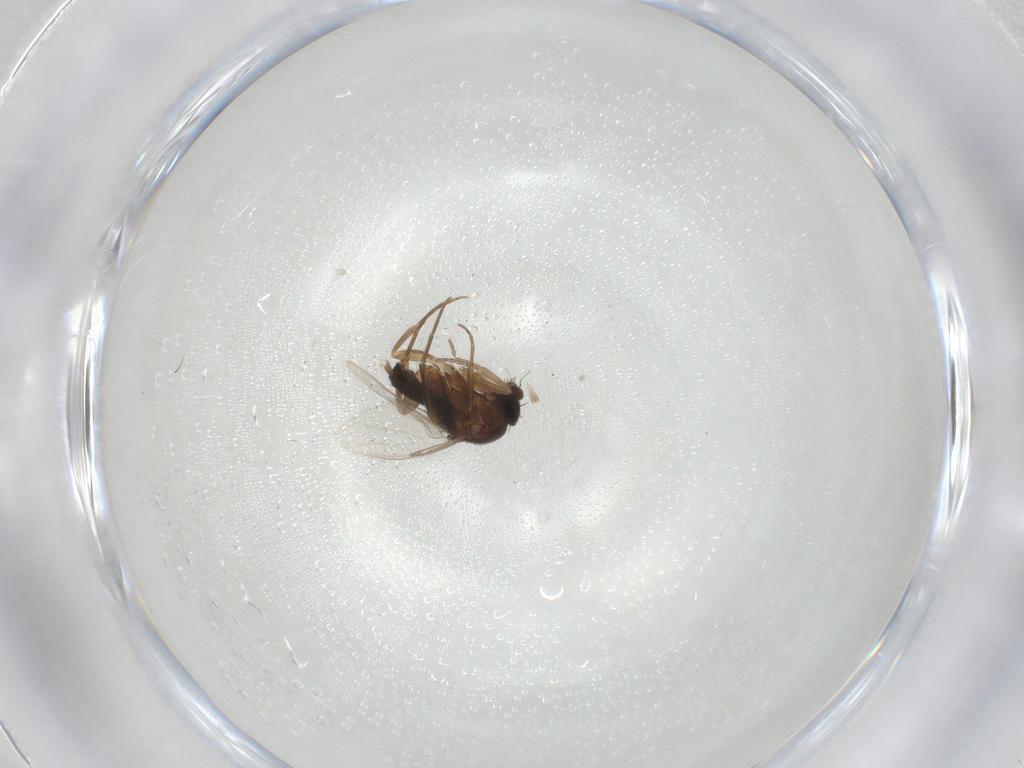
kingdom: Animalia
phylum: Arthropoda
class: Insecta
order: Diptera
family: Phoridae
